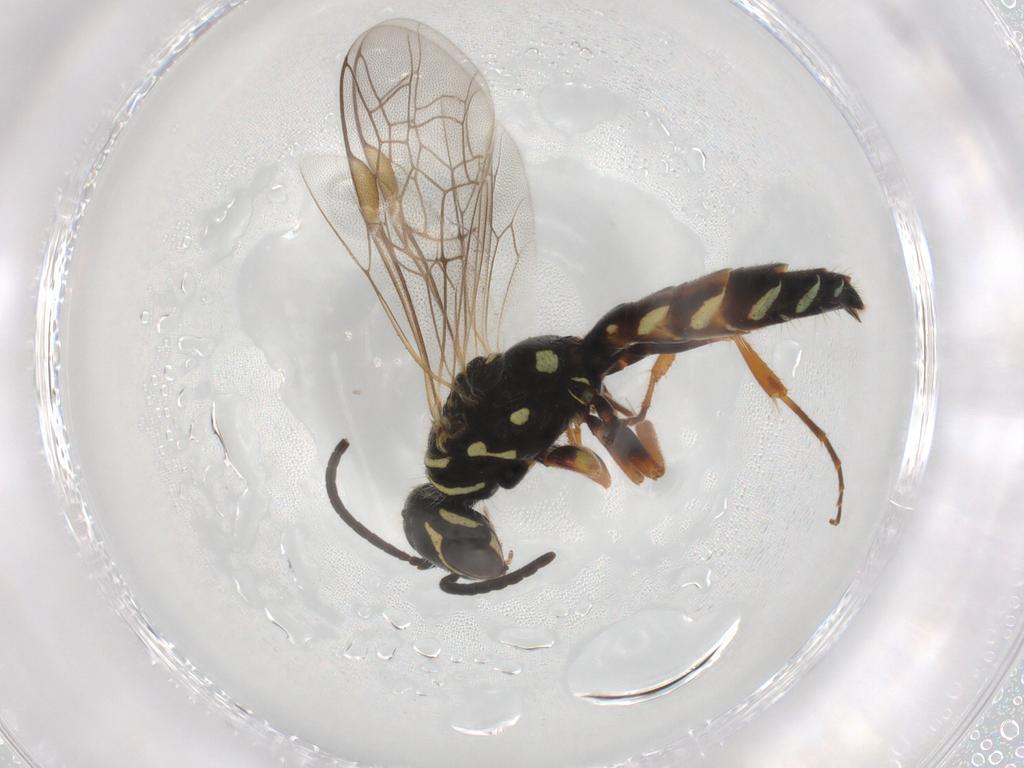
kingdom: Animalia
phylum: Arthropoda
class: Insecta
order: Hymenoptera
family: Thynnidae
